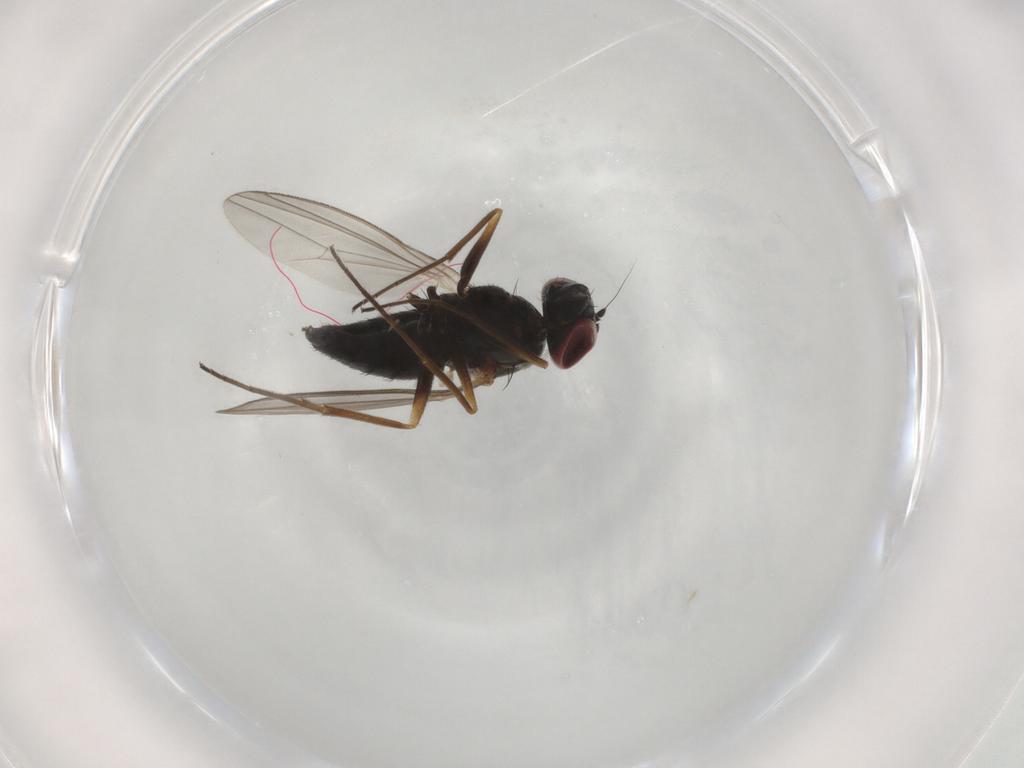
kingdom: Animalia
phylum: Arthropoda
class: Insecta
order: Diptera
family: Dolichopodidae
